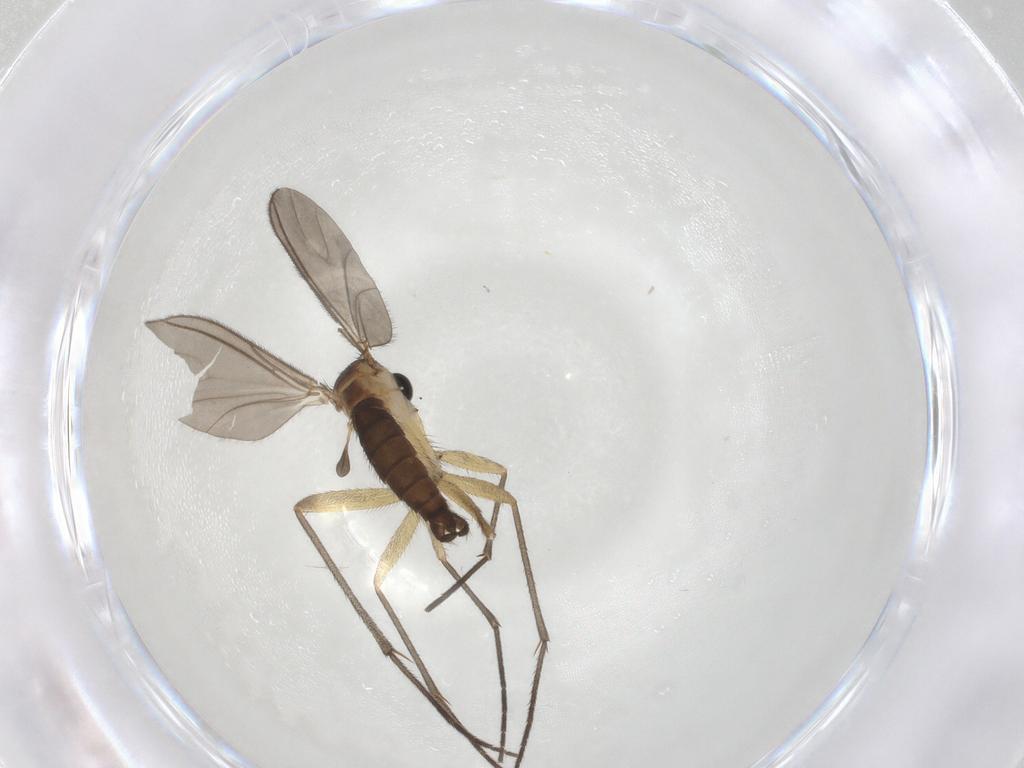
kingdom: Animalia
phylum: Arthropoda
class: Insecta
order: Diptera
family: Sciaridae
